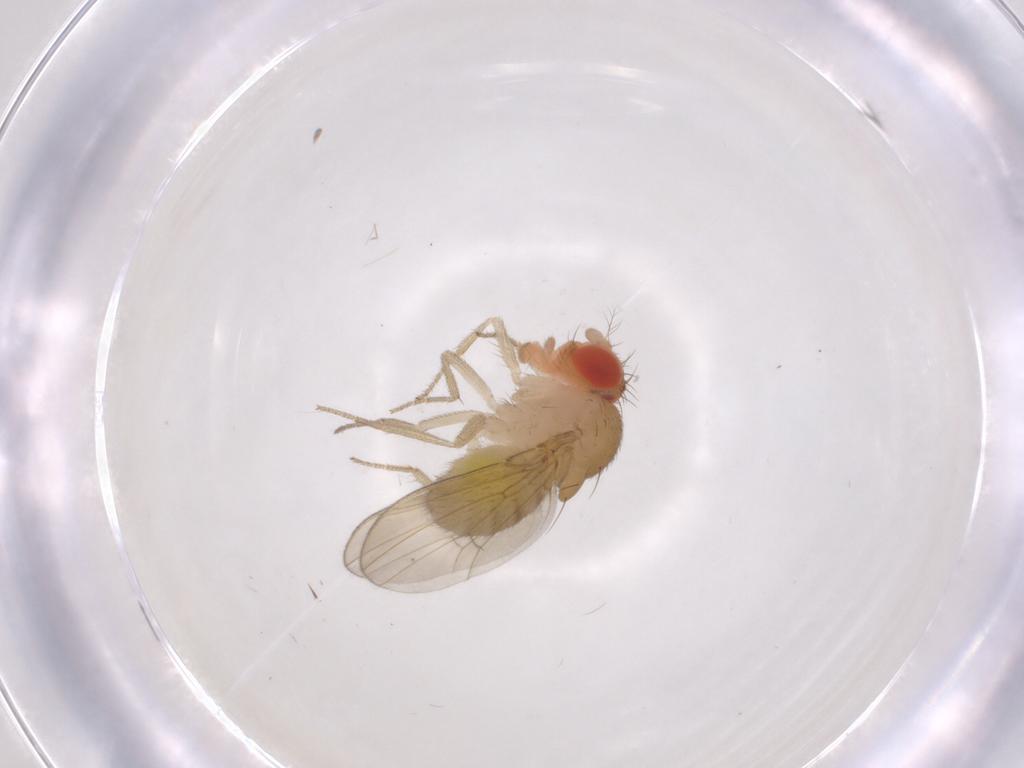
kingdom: Animalia
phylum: Arthropoda
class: Insecta
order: Diptera
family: Drosophilidae
